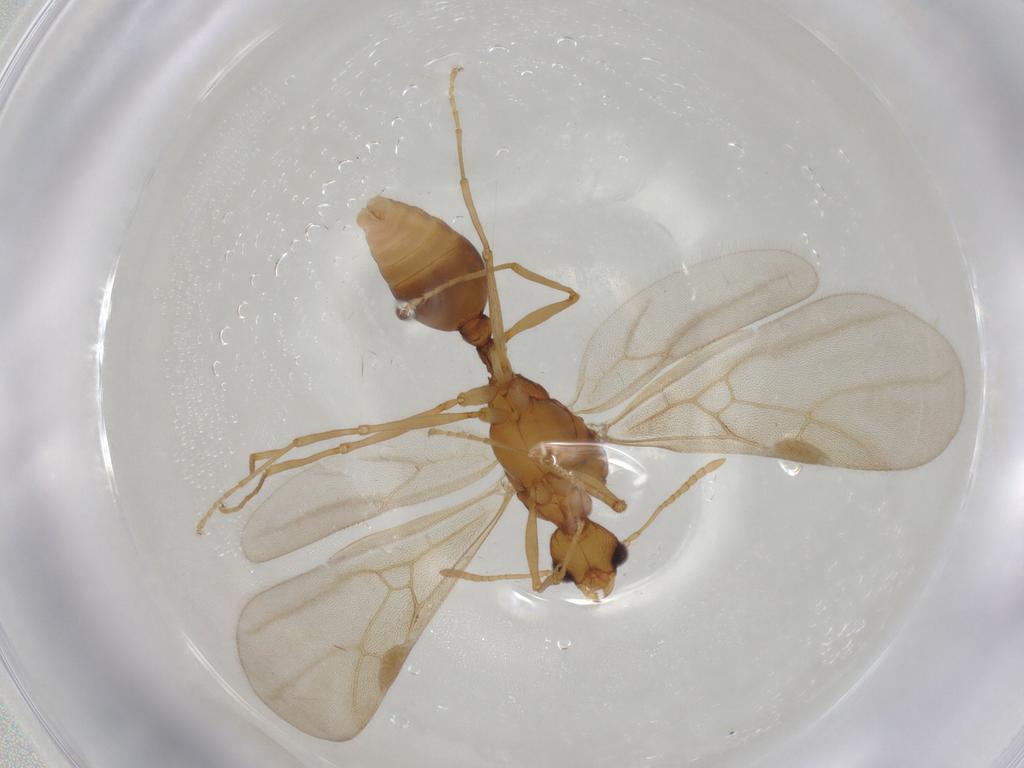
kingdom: Animalia
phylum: Arthropoda
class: Insecta
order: Hymenoptera
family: Formicidae
